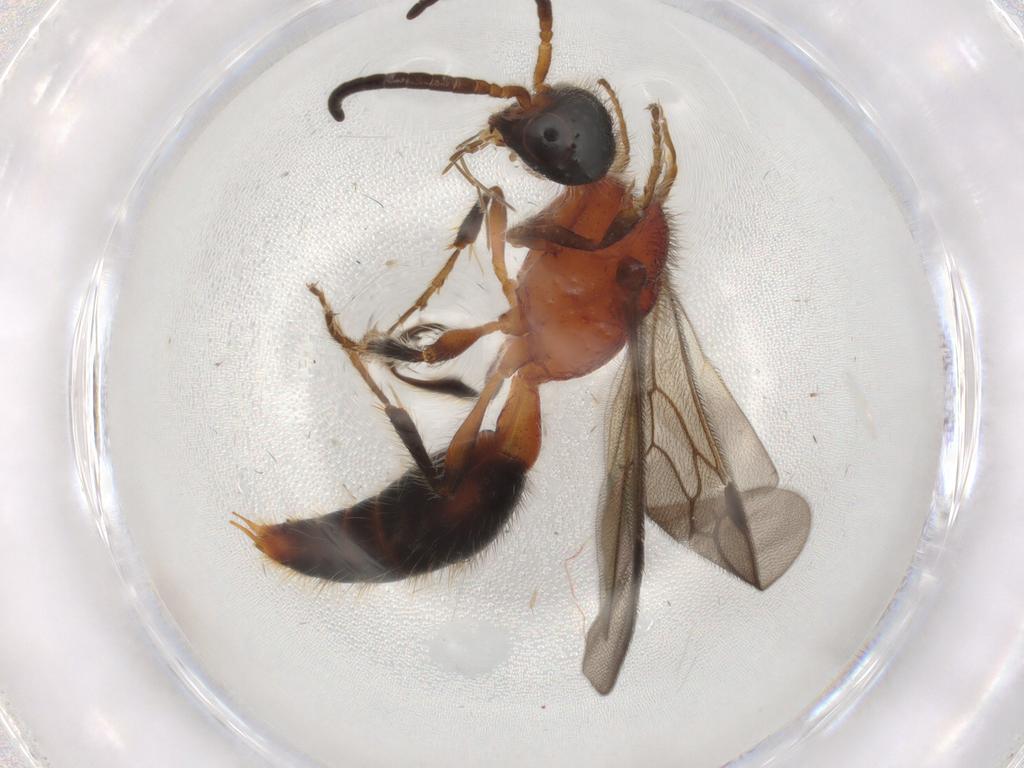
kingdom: Animalia
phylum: Arthropoda
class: Insecta
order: Hymenoptera
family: Mutillidae
